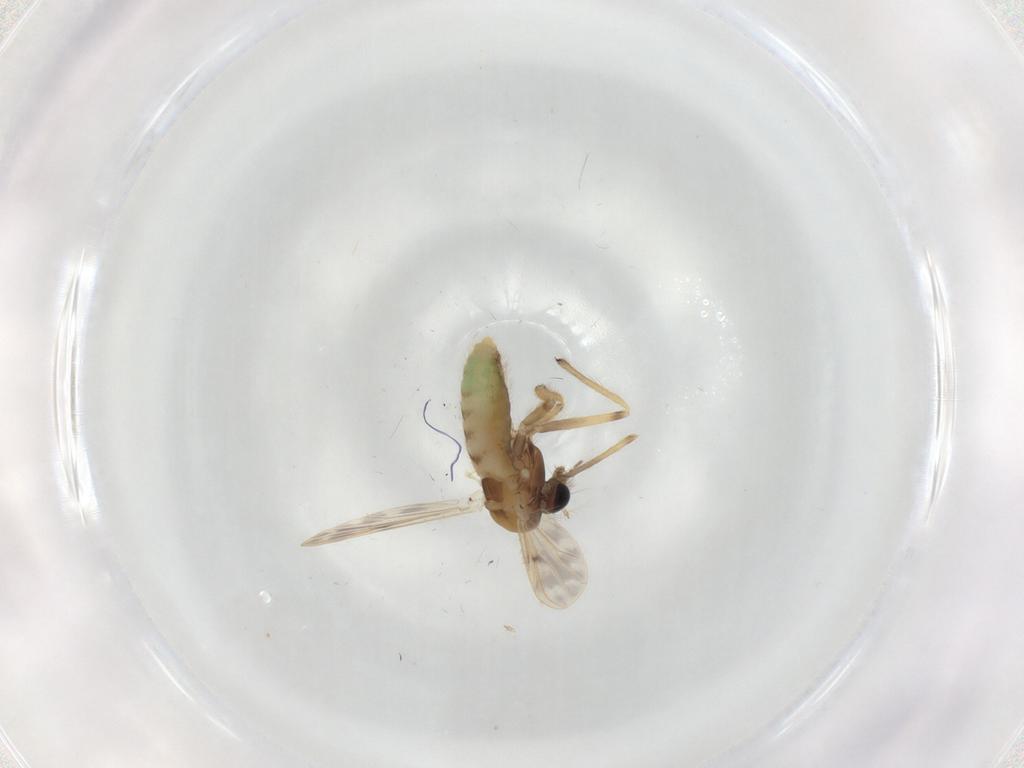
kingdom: Animalia
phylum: Arthropoda
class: Insecta
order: Diptera
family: Chironomidae
